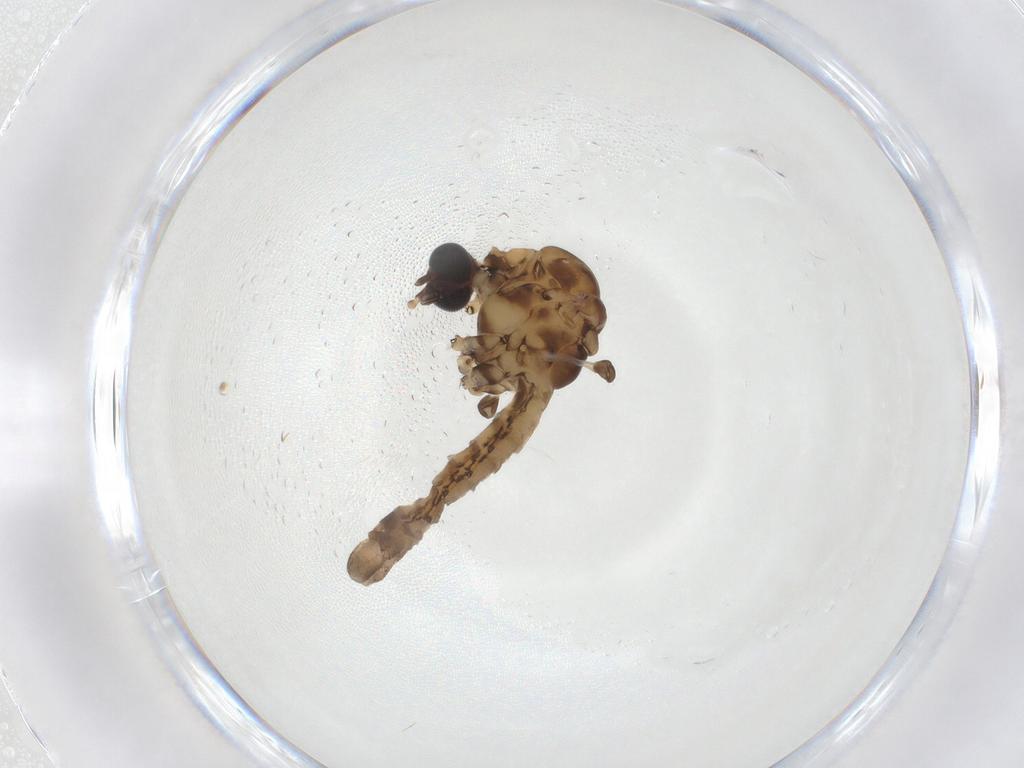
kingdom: Animalia
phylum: Arthropoda
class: Insecta
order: Diptera
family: Limoniidae
